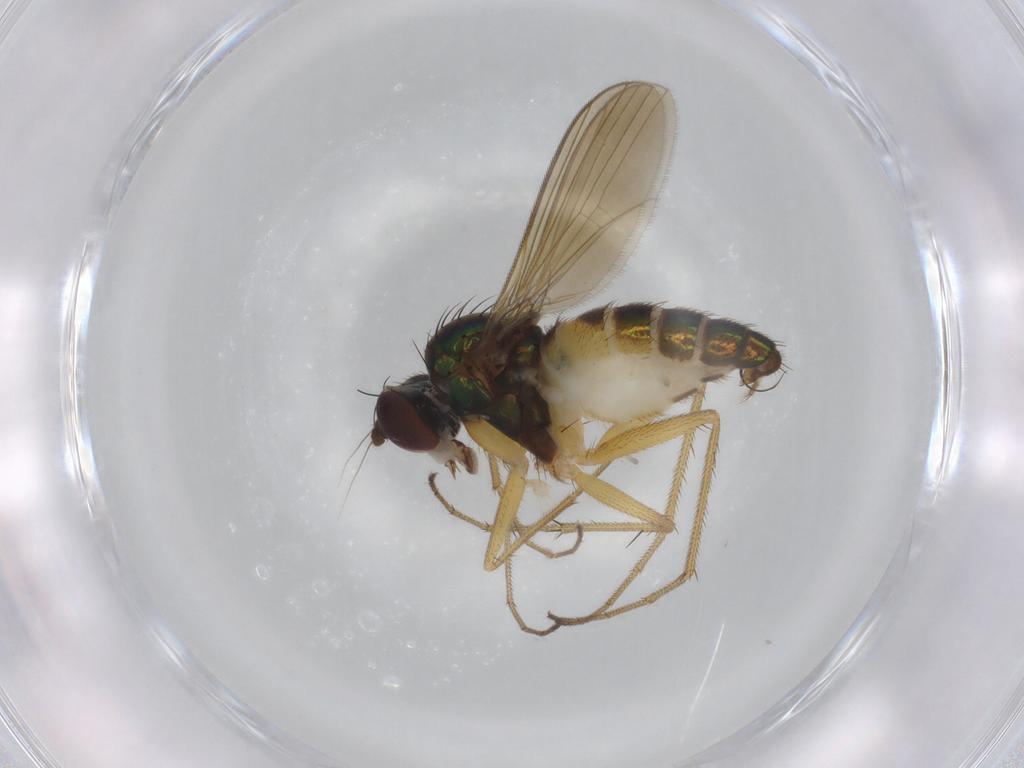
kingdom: Animalia
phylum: Arthropoda
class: Insecta
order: Diptera
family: Dolichopodidae
